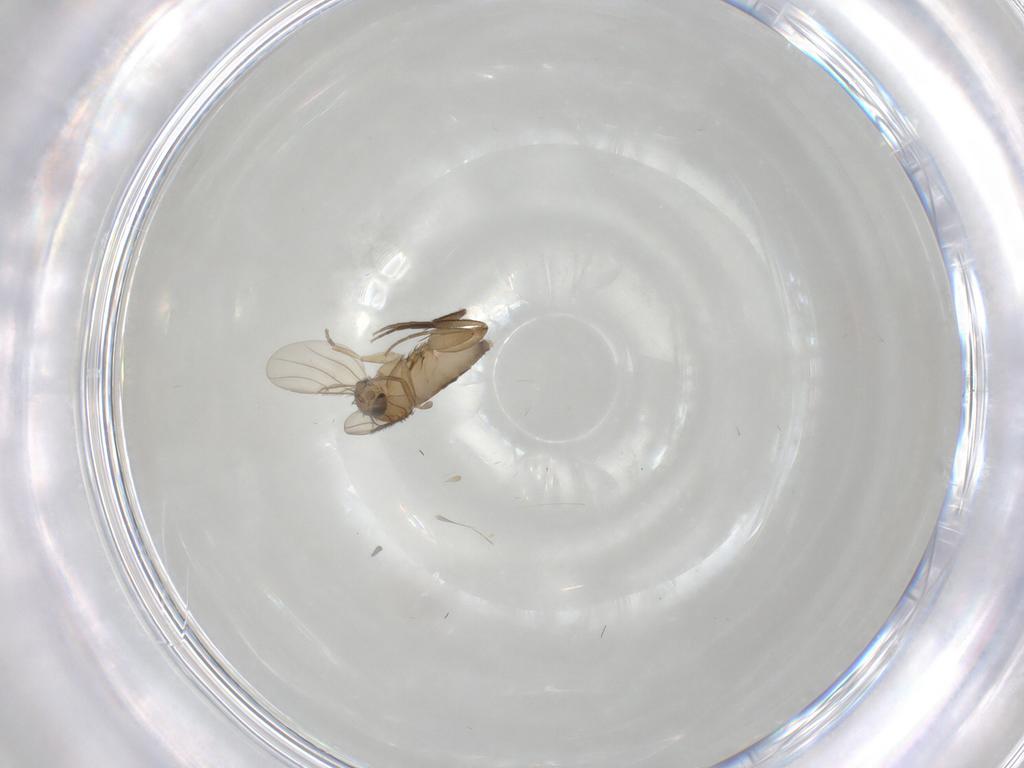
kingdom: Animalia
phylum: Arthropoda
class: Insecta
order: Diptera
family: Phoridae
